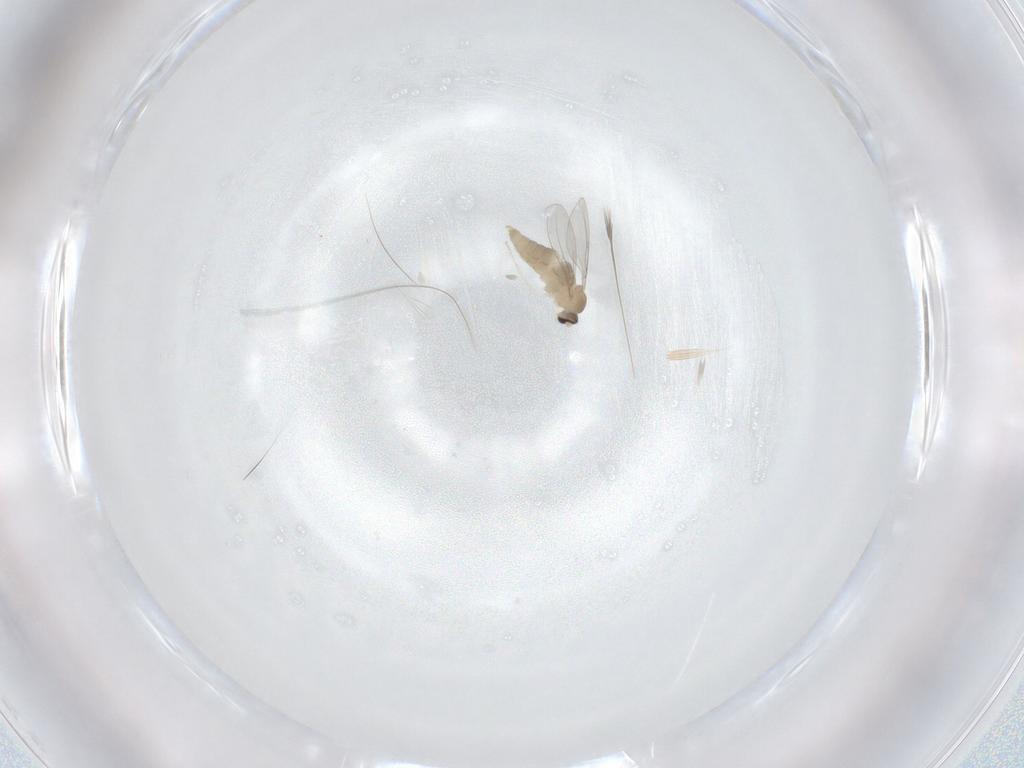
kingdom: Animalia
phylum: Arthropoda
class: Insecta
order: Diptera
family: Cecidomyiidae
